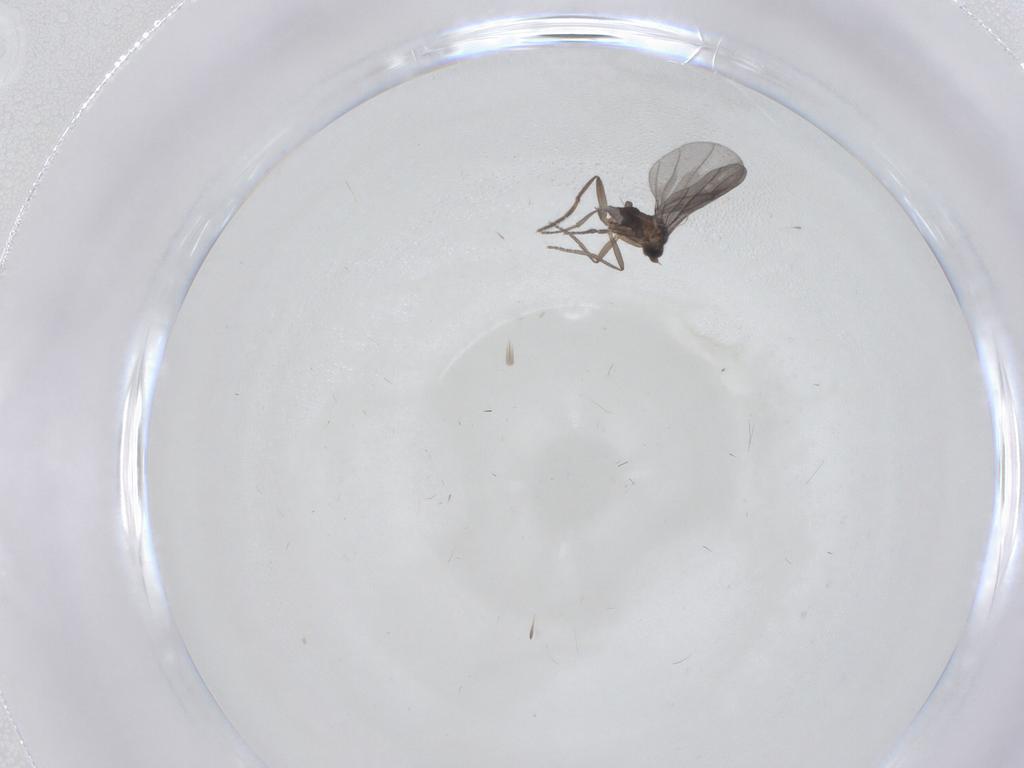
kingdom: Animalia
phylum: Arthropoda
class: Insecta
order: Diptera
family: Phoridae
